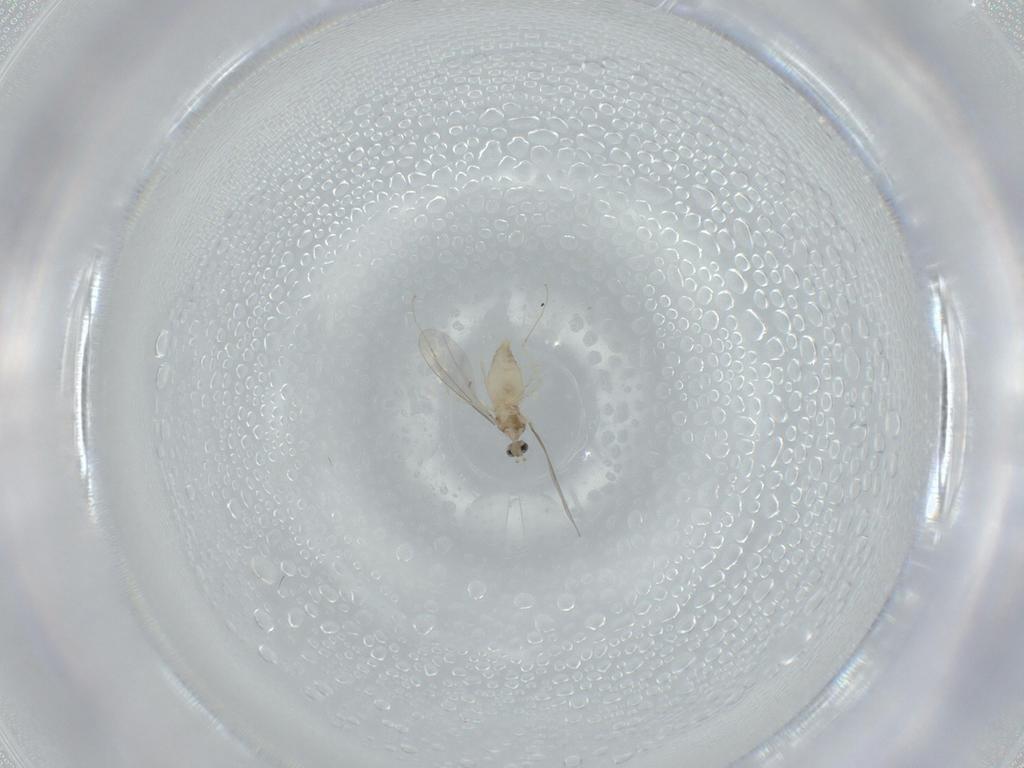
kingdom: Animalia
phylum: Arthropoda
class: Insecta
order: Diptera
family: Cecidomyiidae
